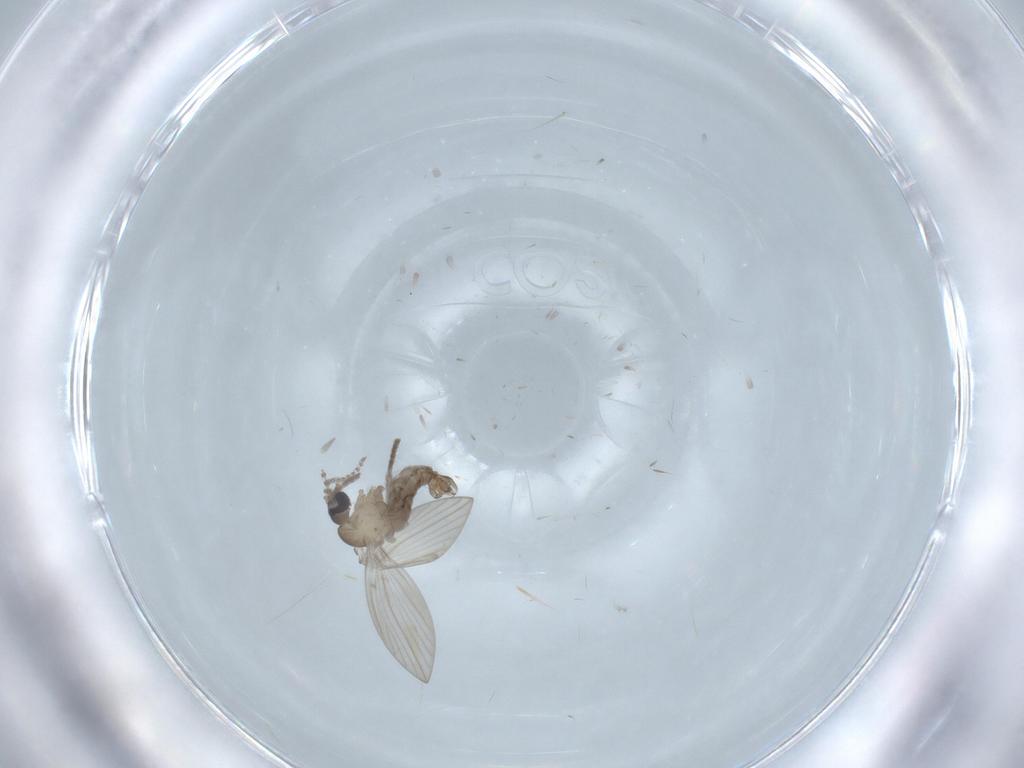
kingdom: Animalia
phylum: Arthropoda
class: Insecta
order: Diptera
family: Psychodidae
